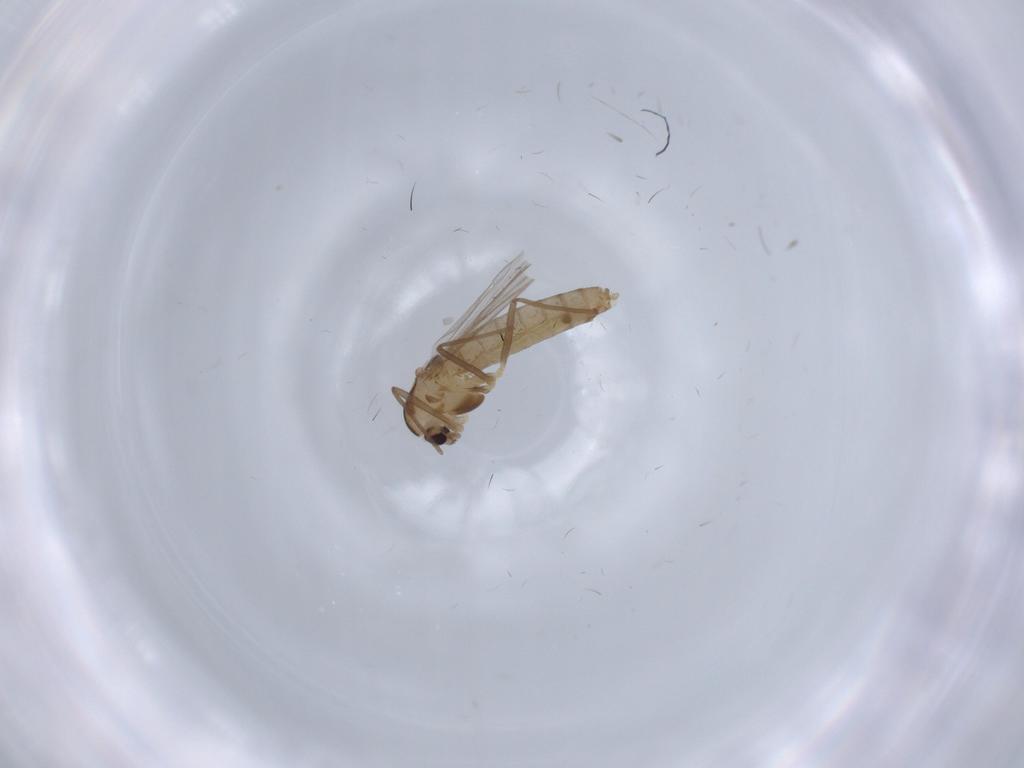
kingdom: Animalia
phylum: Arthropoda
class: Insecta
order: Diptera
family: Chironomidae
